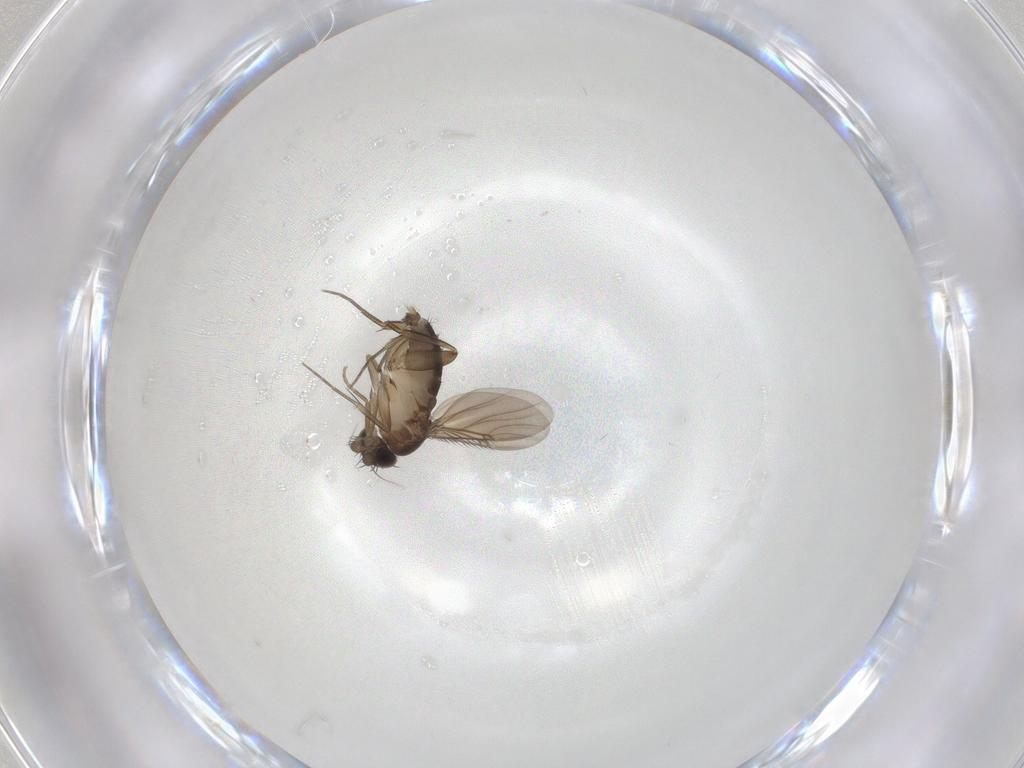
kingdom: Animalia
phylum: Arthropoda
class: Insecta
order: Diptera
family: Phoridae
